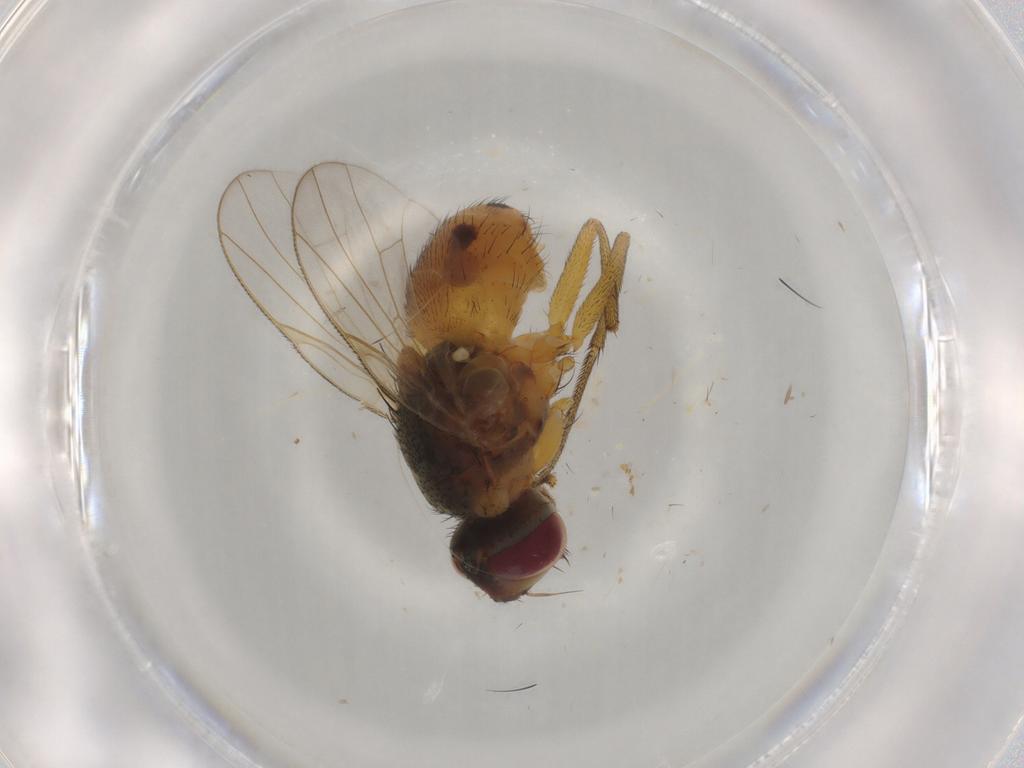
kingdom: Animalia
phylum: Arthropoda
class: Insecta
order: Diptera
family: Muscidae
